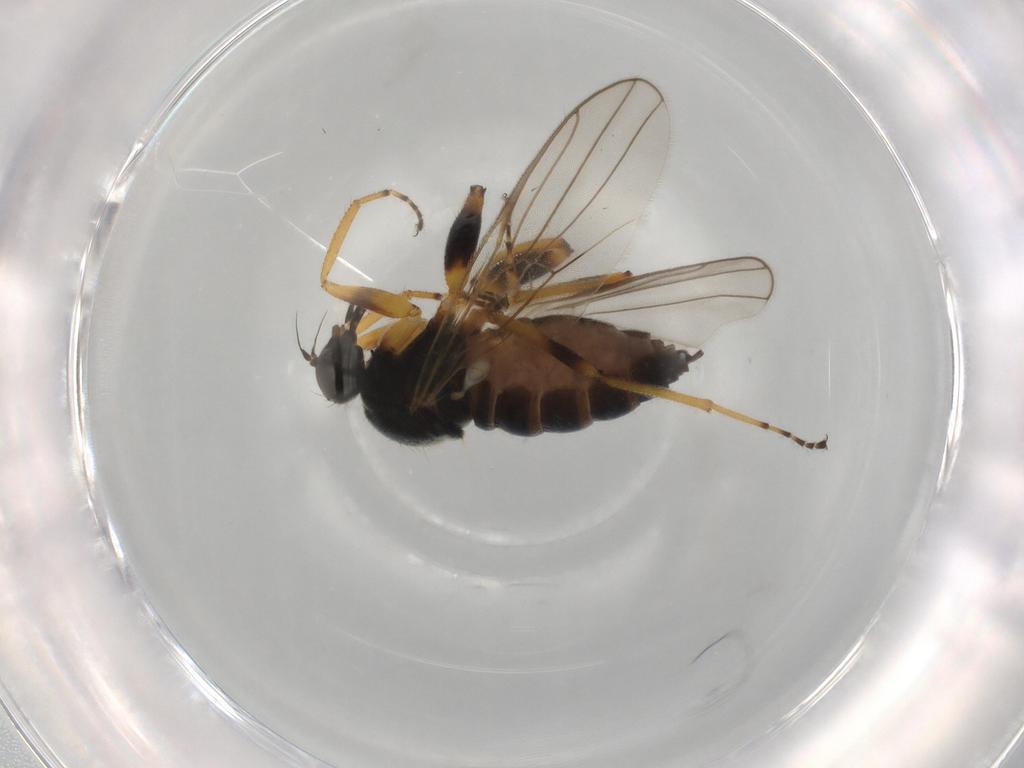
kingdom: Animalia
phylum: Arthropoda
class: Insecta
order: Diptera
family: Hybotidae
